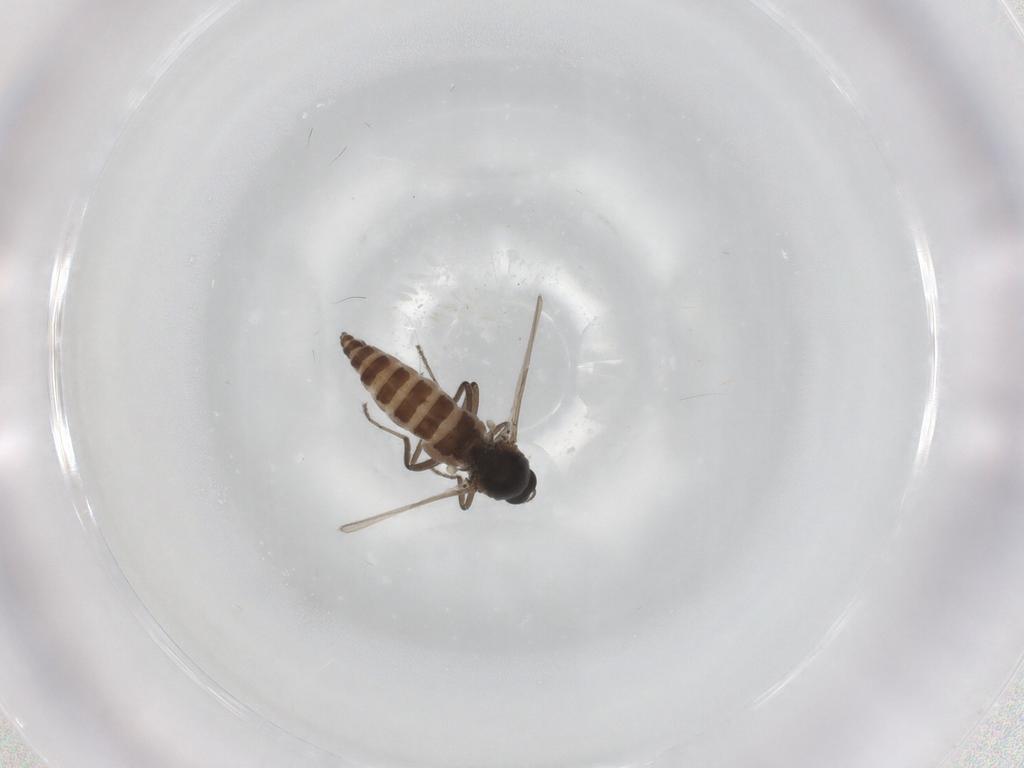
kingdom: Animalia
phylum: Arthropoda
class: Insecta
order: Diptera
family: Ceratopogonidae
